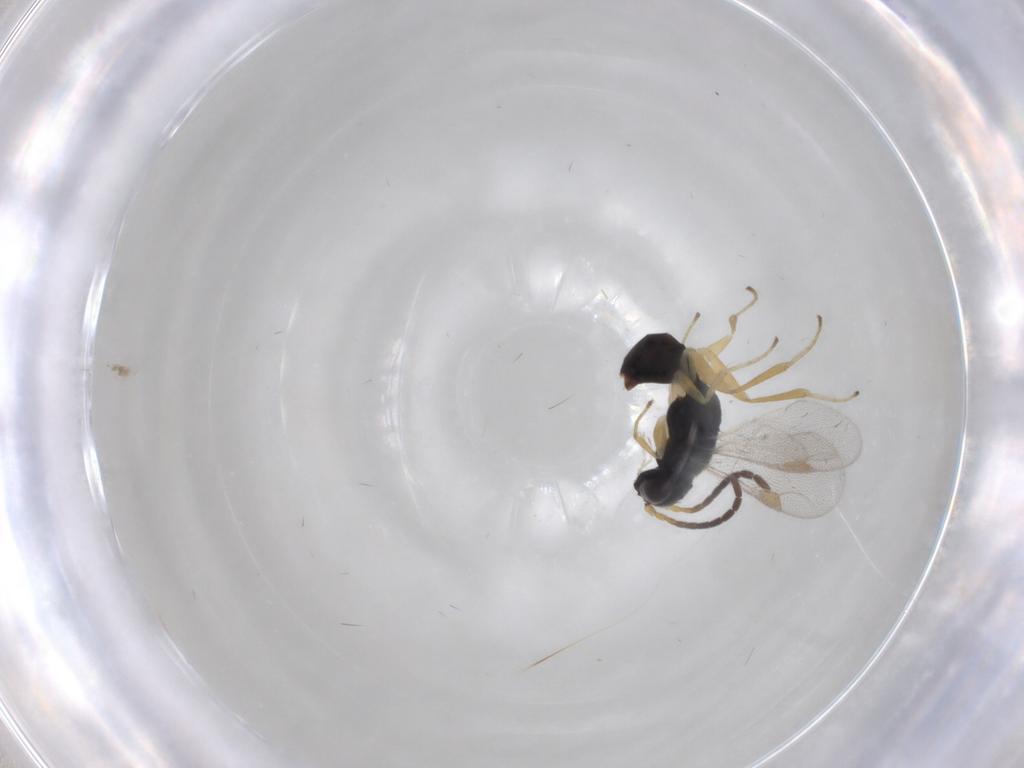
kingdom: Animalia
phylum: Arthropoda
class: Insecta
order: Hymenoptera
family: Dryinidae
